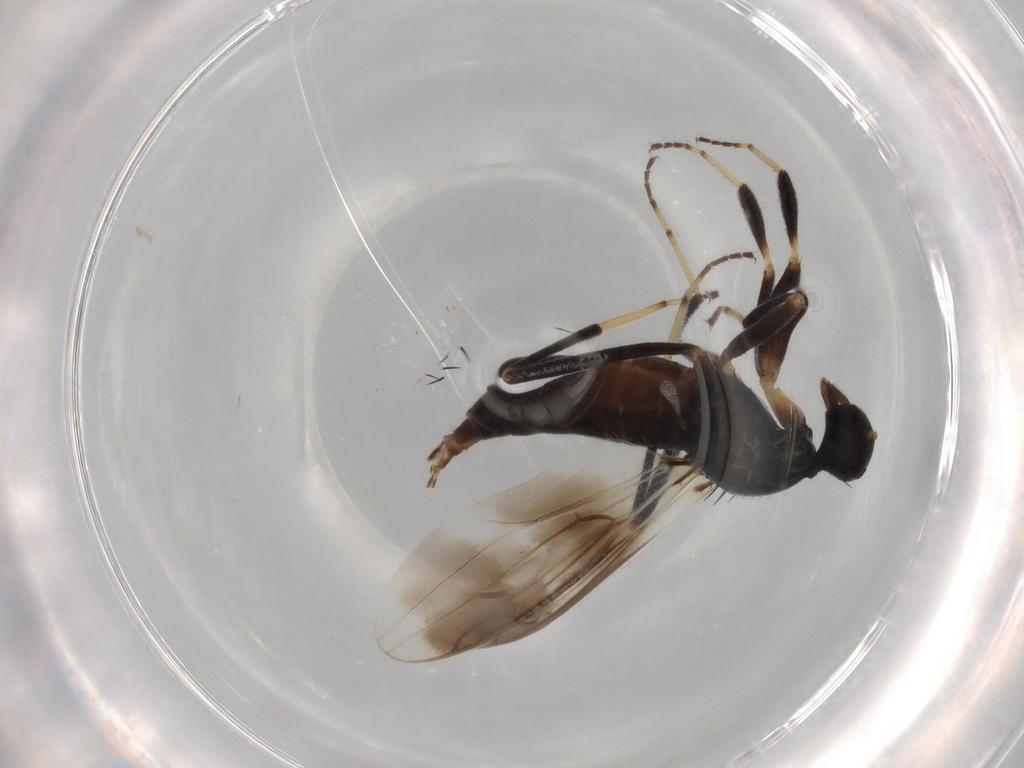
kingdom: Animalia
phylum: Arthropoda
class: Insecta
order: Diptera
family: Hybotidae
